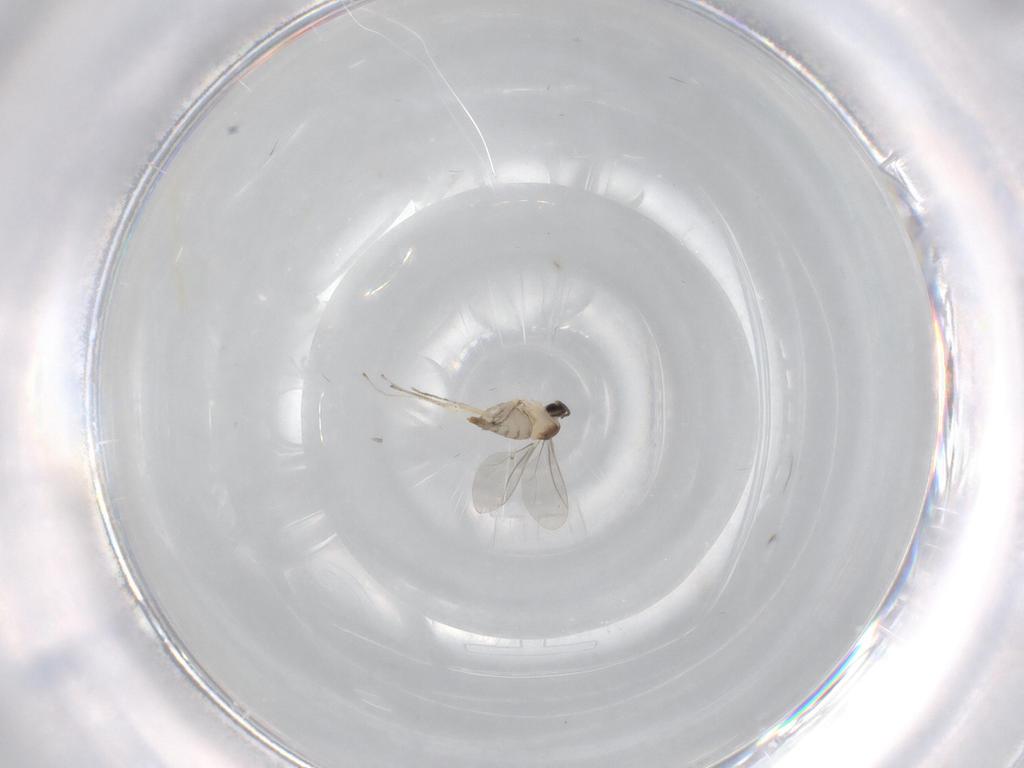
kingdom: Animalia
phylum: Arthropoda
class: Insecta
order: Diptera
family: Cecidomyiidae
